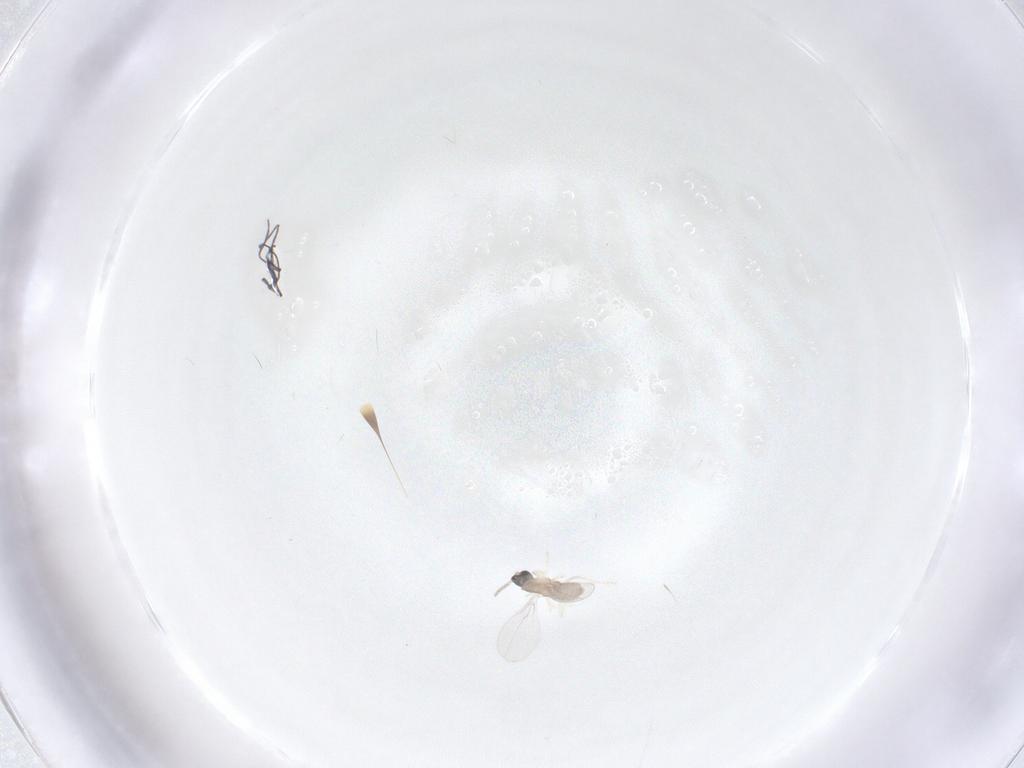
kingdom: Animalia
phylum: Arthropoda
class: Insecta
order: Diptera
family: Cecidomyiidae
